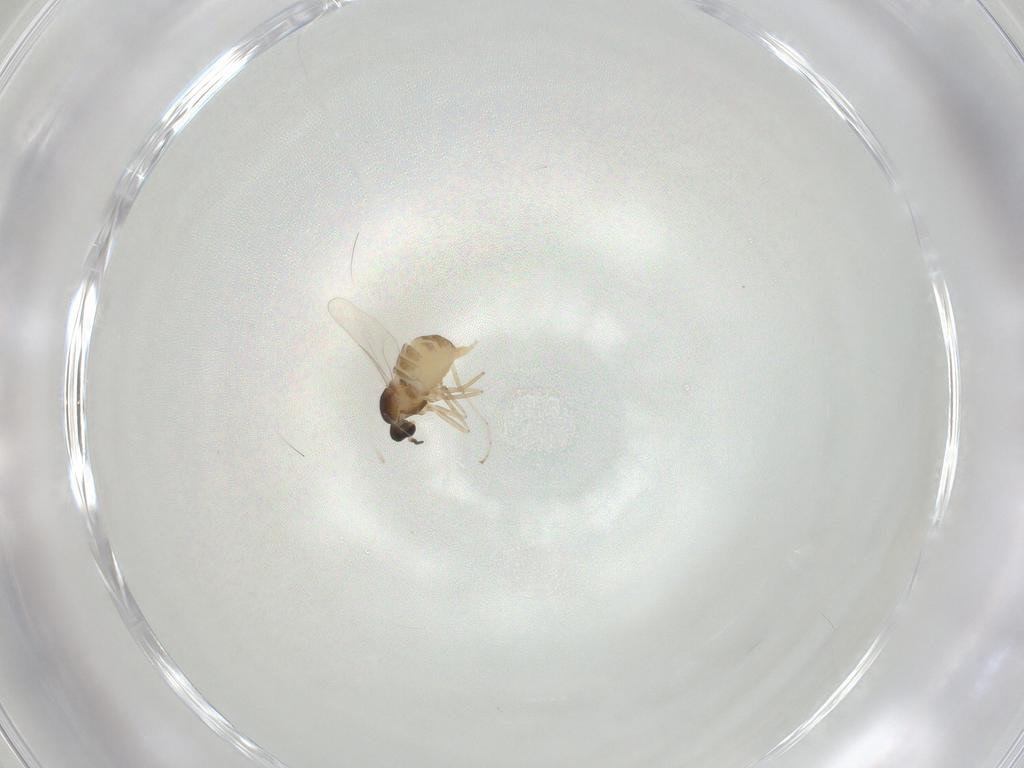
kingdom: Animalia
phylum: Arthropoda
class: Insecta
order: Diptera
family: Cecidomyiidae
